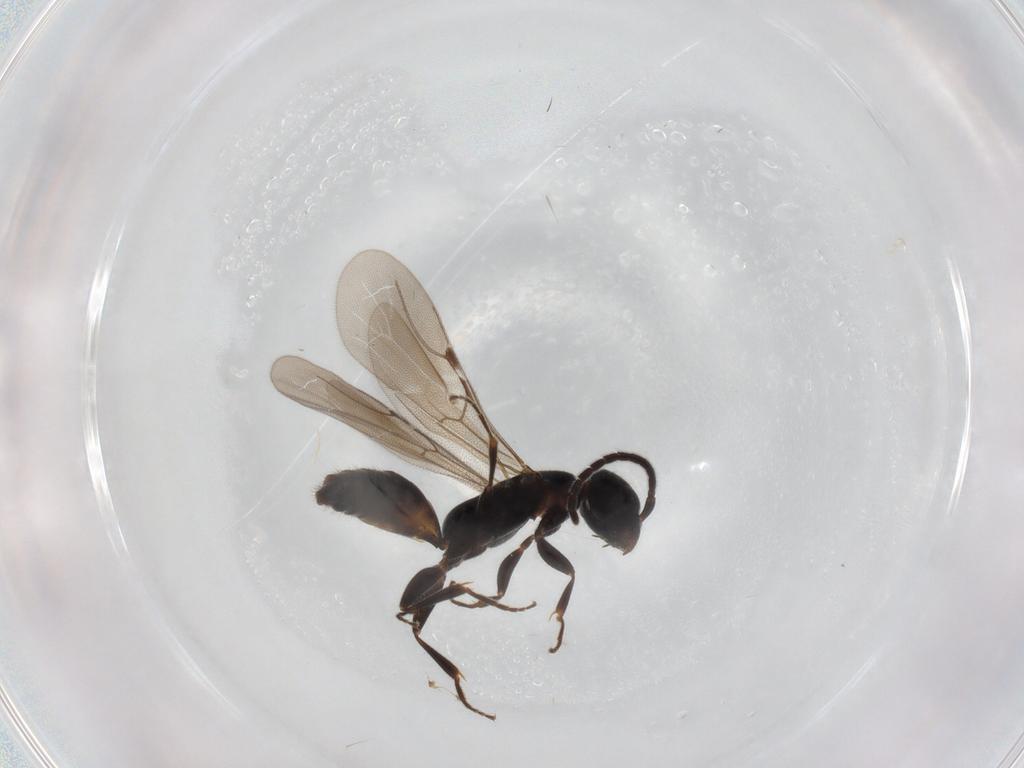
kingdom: Animalia
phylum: Arthropoda
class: Insecta
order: Hymenoptera
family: Bethylidae
